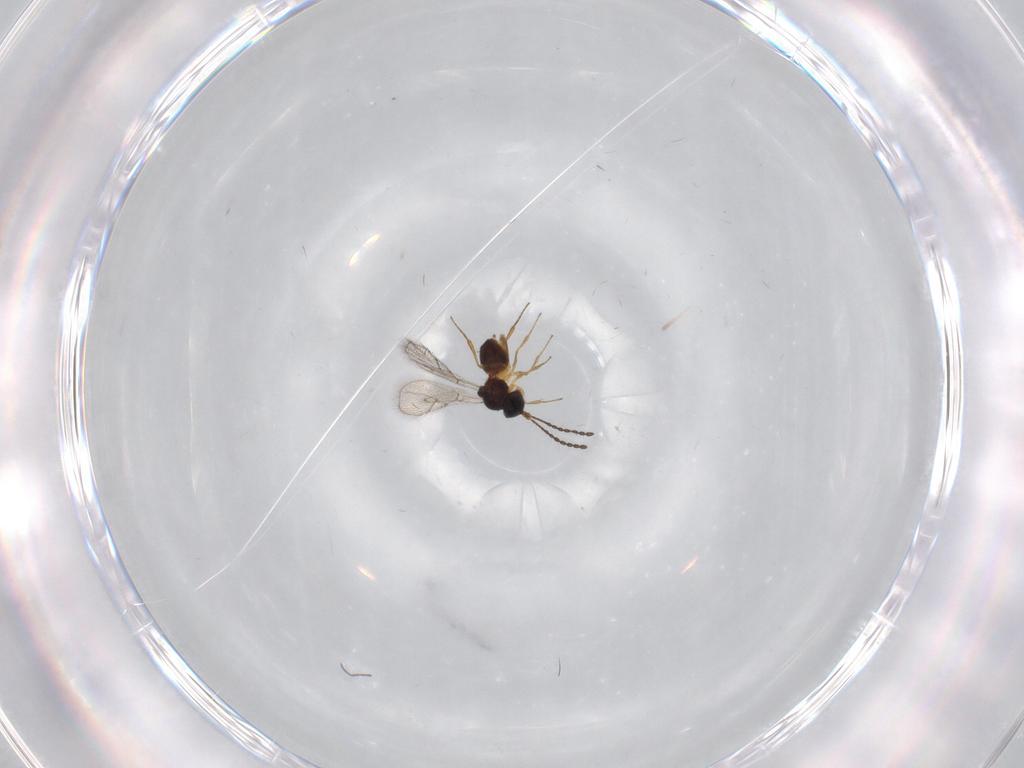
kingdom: Animalia
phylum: Arthropoda
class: Insecta
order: Hymenoptera
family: Figitidae
